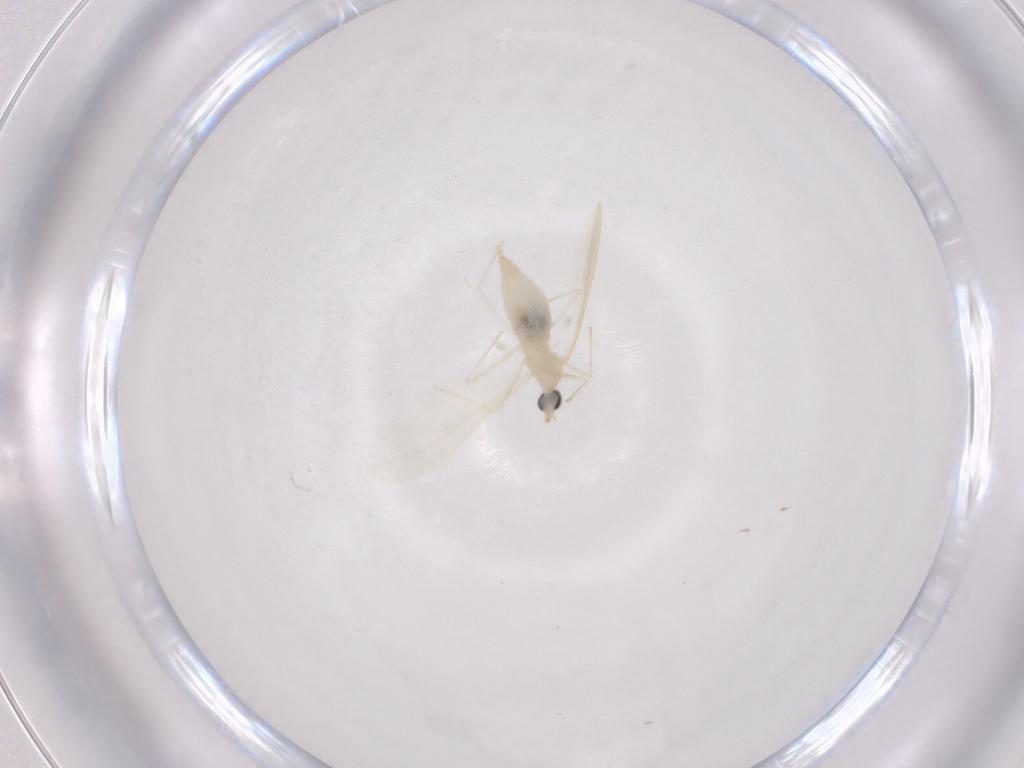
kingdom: Animalia
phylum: Arthropoda
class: Insecta
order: Diptera
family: Cecidomyiidae
